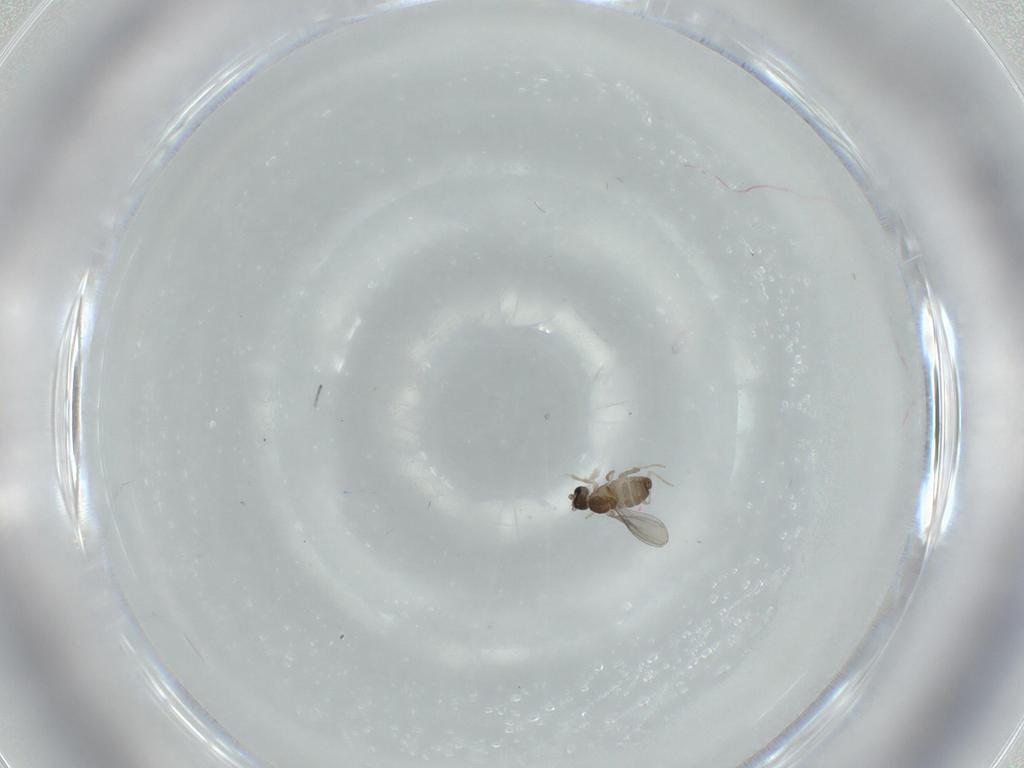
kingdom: Animalia
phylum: Arthropoda
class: Insecta
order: Diptera
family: Cecidomyiidae
